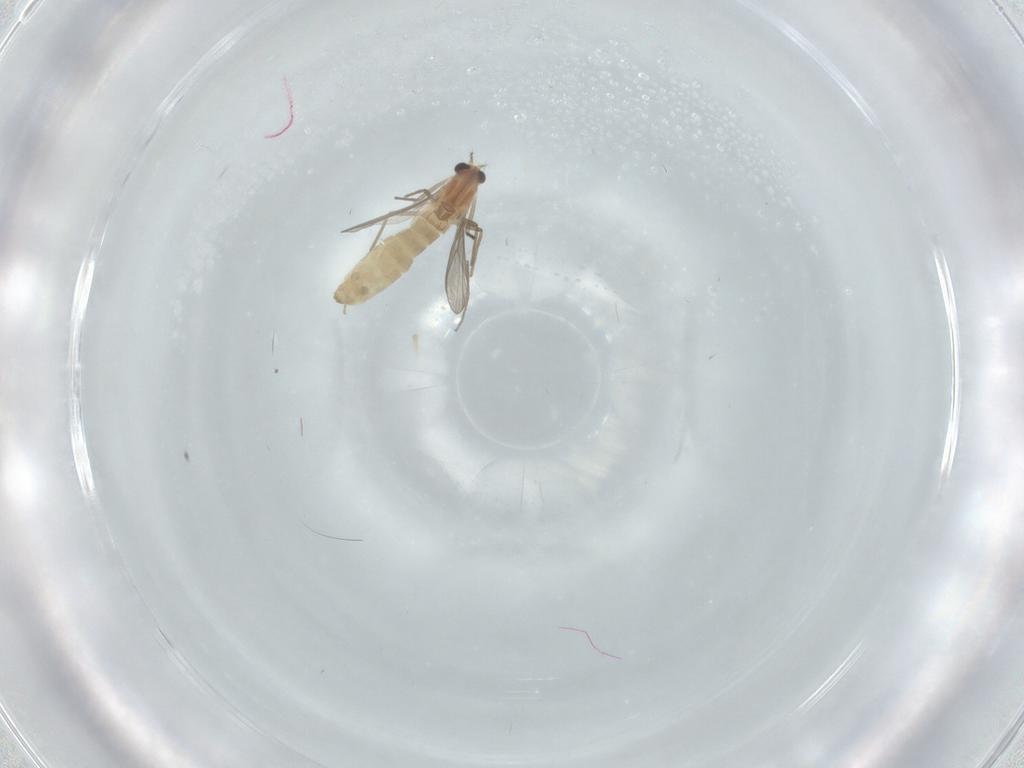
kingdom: Animalia
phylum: Arthropoda
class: Insecta
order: Diptera
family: Chironomidae
